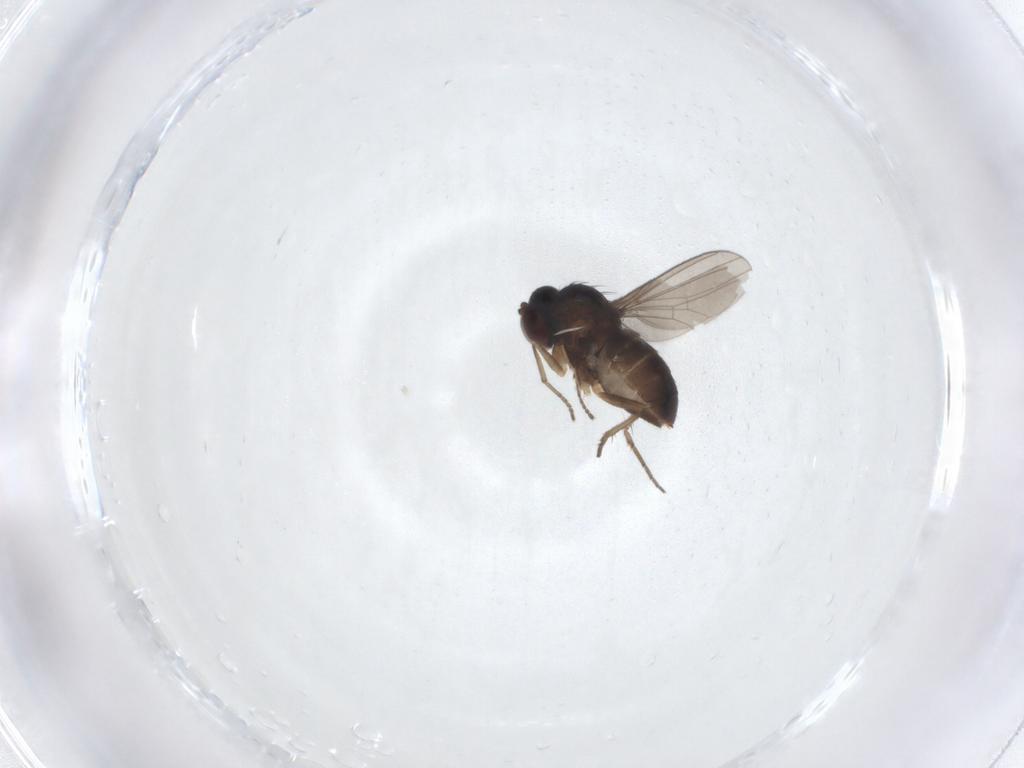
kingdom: Animalia
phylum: Arthropoda
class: Insecta
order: Diptera
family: Dolichopodidae
